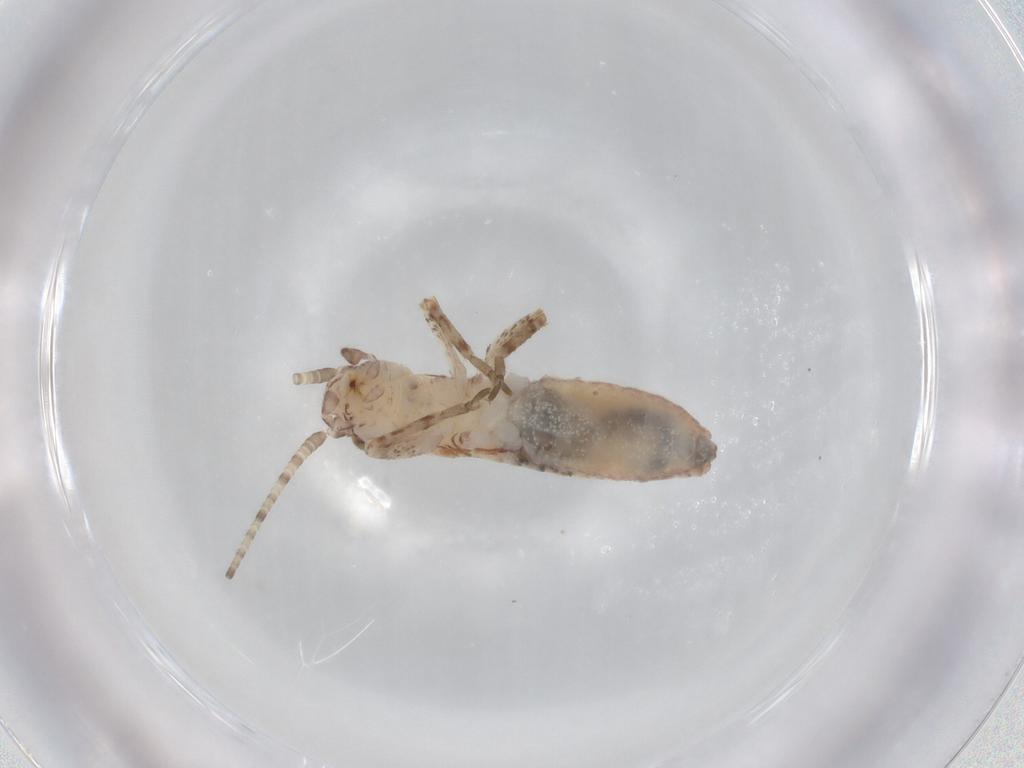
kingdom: Animalia
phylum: Arthropoda
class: Insecta
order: Orthoptera
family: Mogoplistidae
